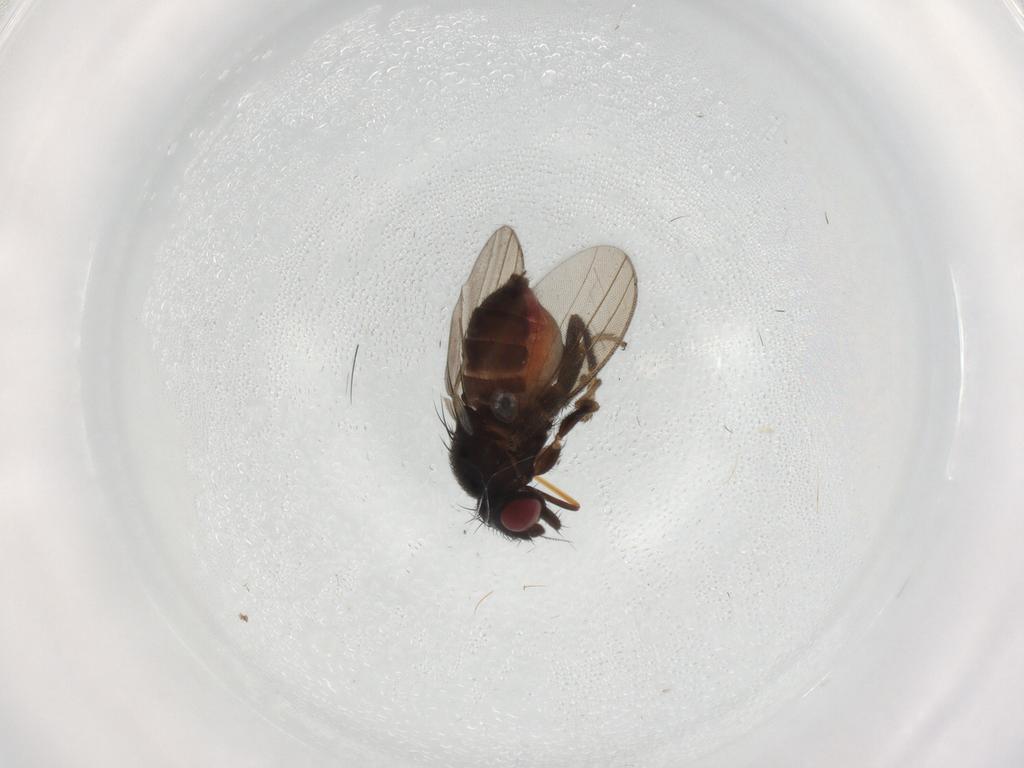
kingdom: Animalia
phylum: Arthropoda
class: Insecta
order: Diptera
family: Milichiidae
